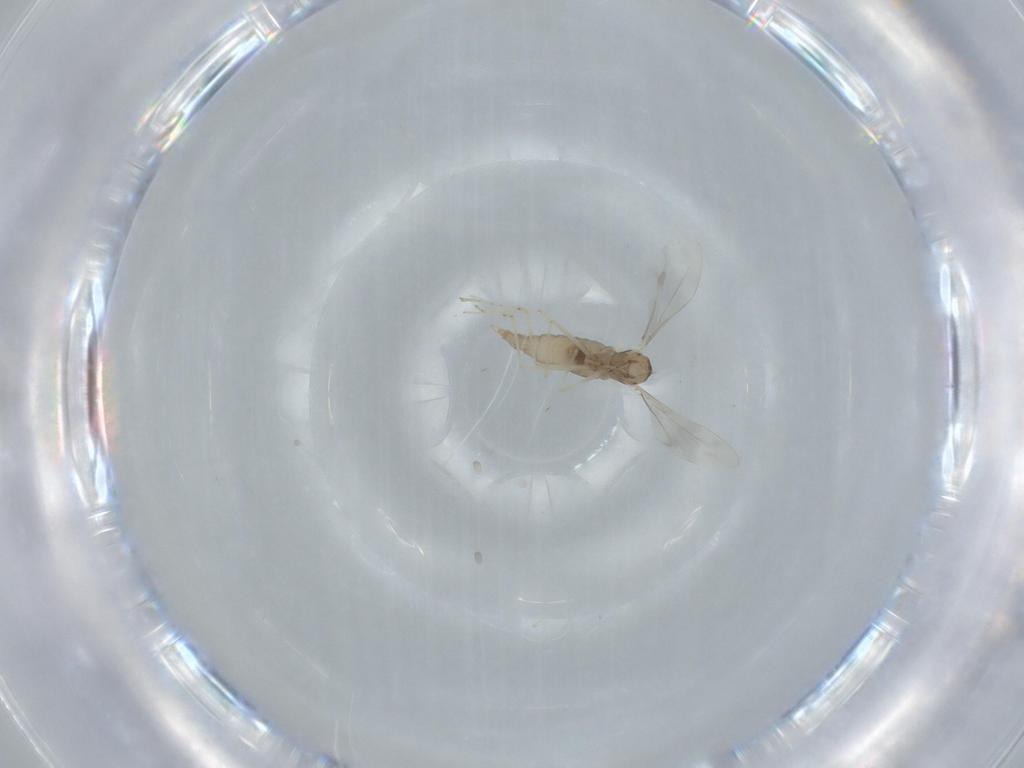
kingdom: Animalia
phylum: Arthropoda
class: Insecta
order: Diptera
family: Cecidomyiidae
